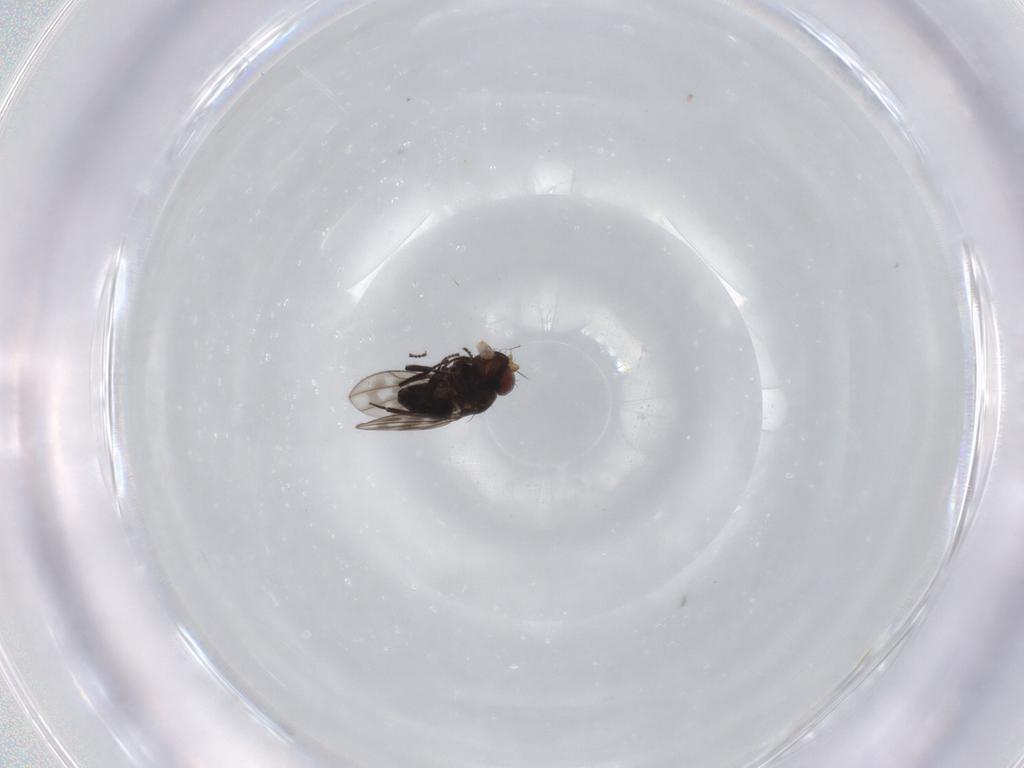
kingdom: Animalia
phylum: Arthropoda
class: Insecta
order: Diptera
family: Ephydridae
